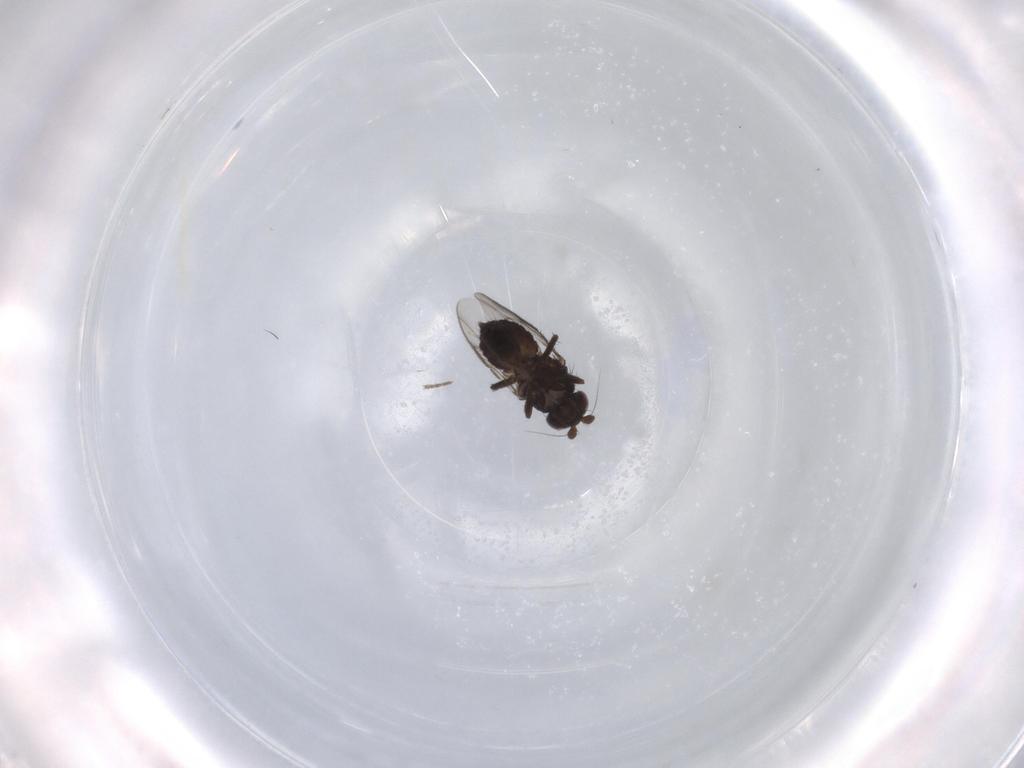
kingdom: Animalia
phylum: Arthropoda
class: Insecta
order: Diptera
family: Sphaeroceridae
